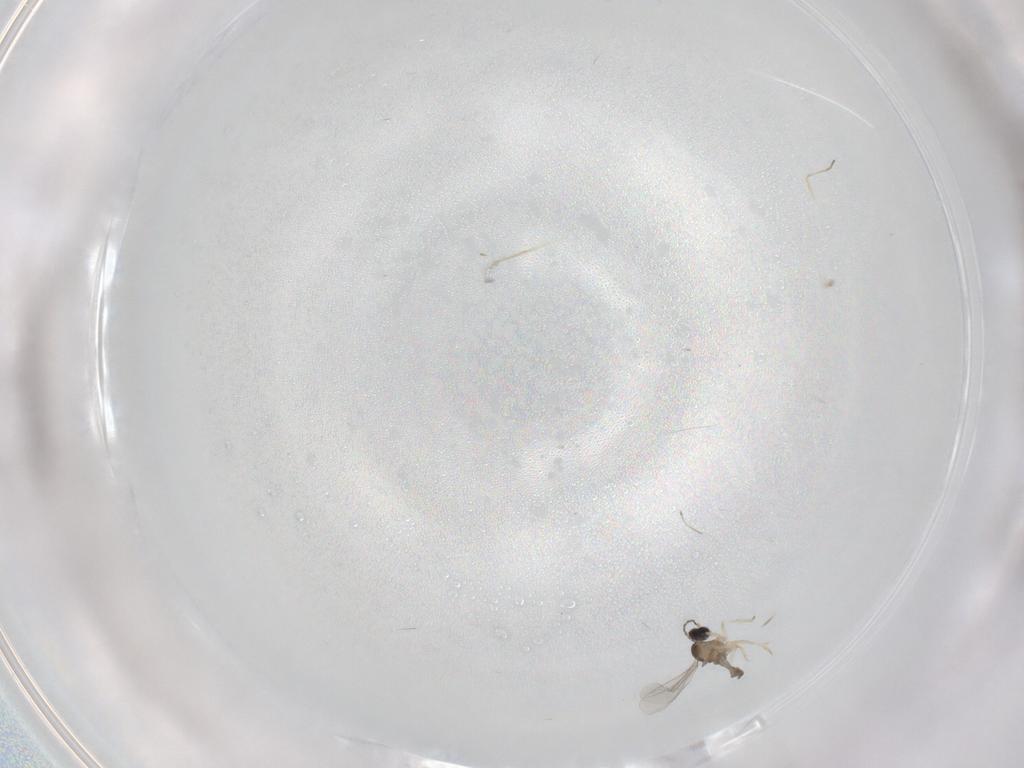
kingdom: Animalia
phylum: Arthropoda
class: Insecta
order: Diptera
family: Cecidomyiidae
